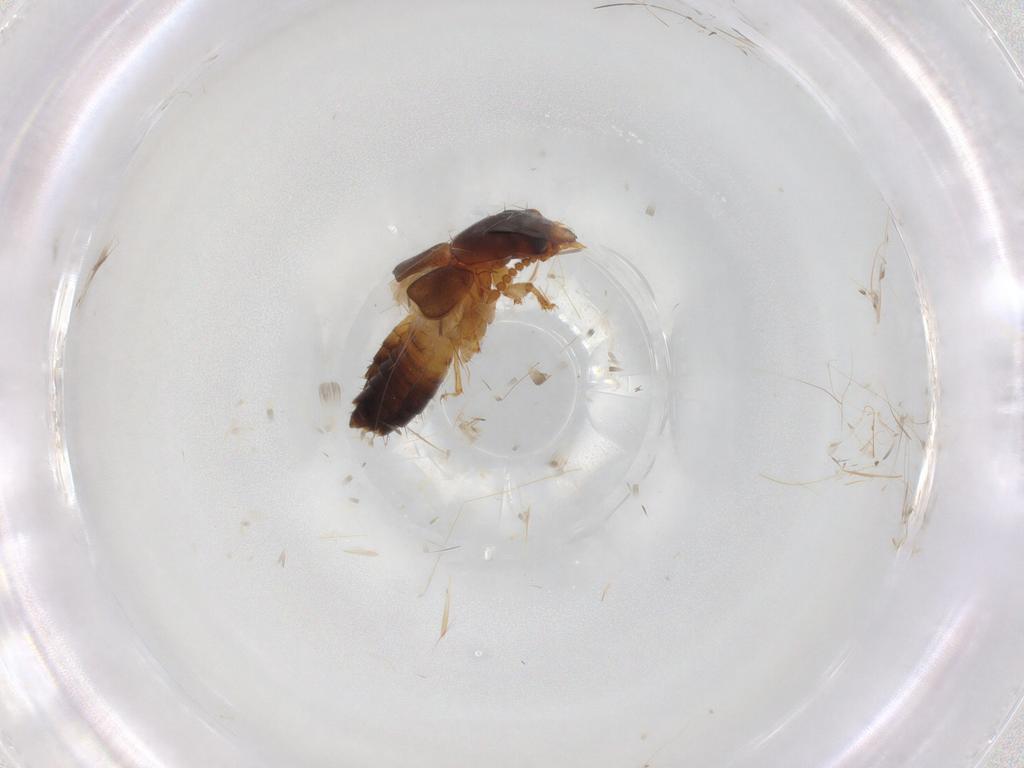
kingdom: Animalia
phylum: Arthropoda
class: Insecta
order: Coleoptera
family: Staphylinidae
